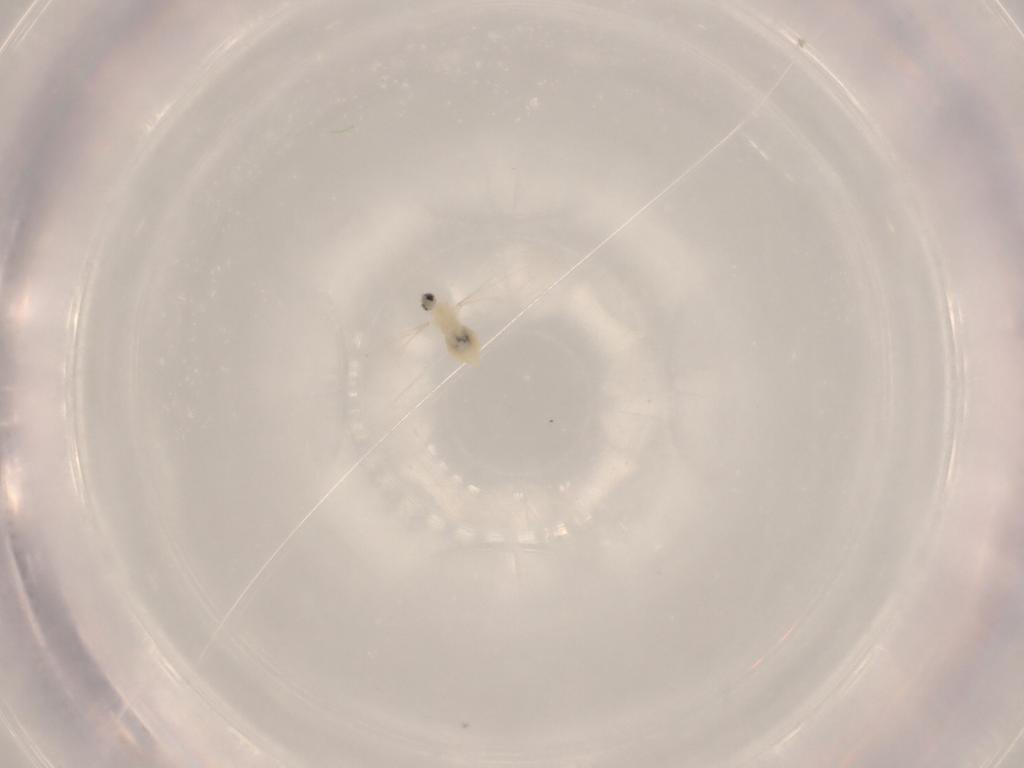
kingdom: Animalia
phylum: Arthropoda
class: Insecta
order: Diptera
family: Cecidomyiidae
